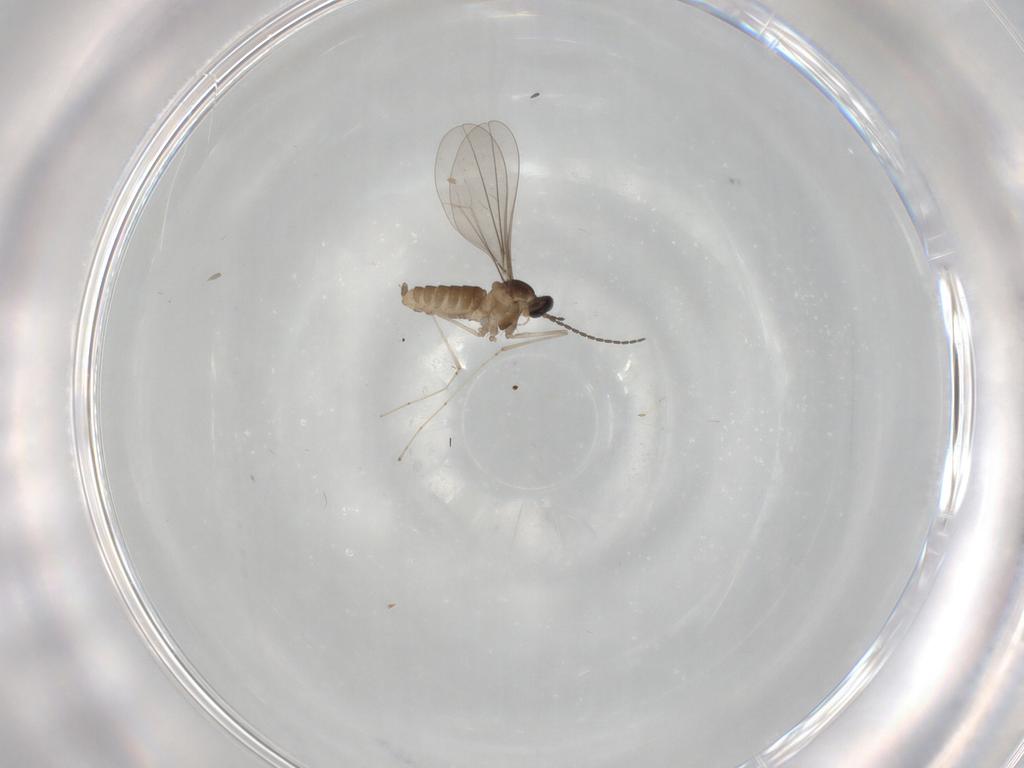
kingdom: Animalia
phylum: Arthropoda
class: Insecta
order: Diptera
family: Cecidomyiidae
